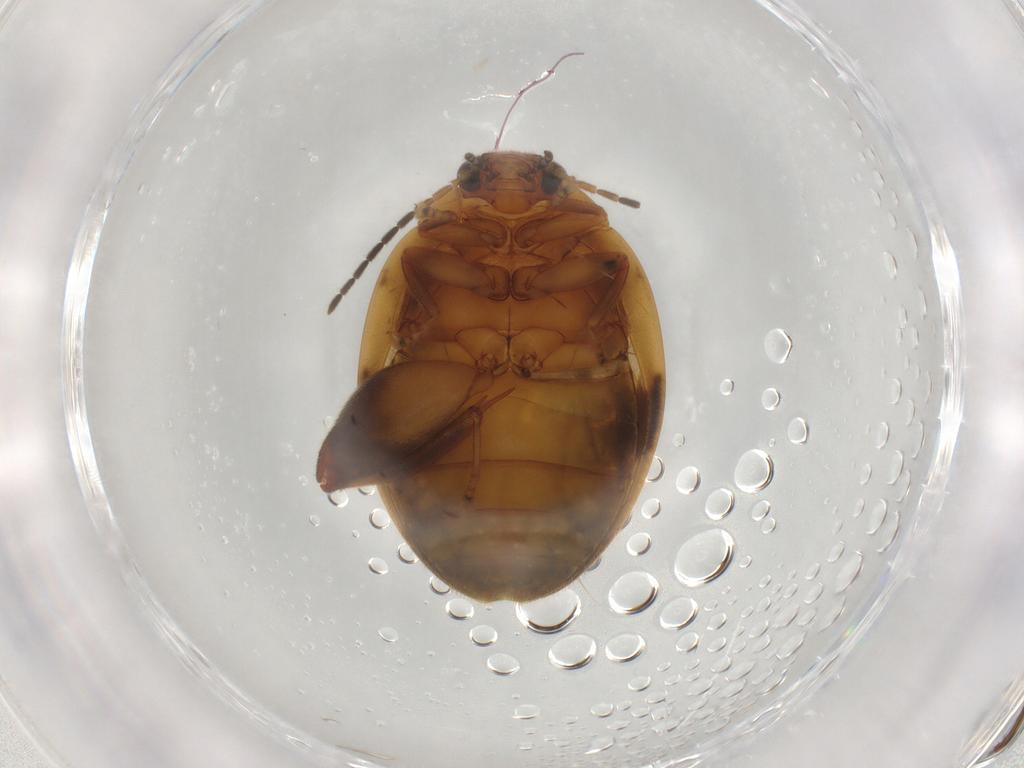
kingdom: Animalia
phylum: Arthropoda
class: Insecta
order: Coleoptera
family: Scirtidae
